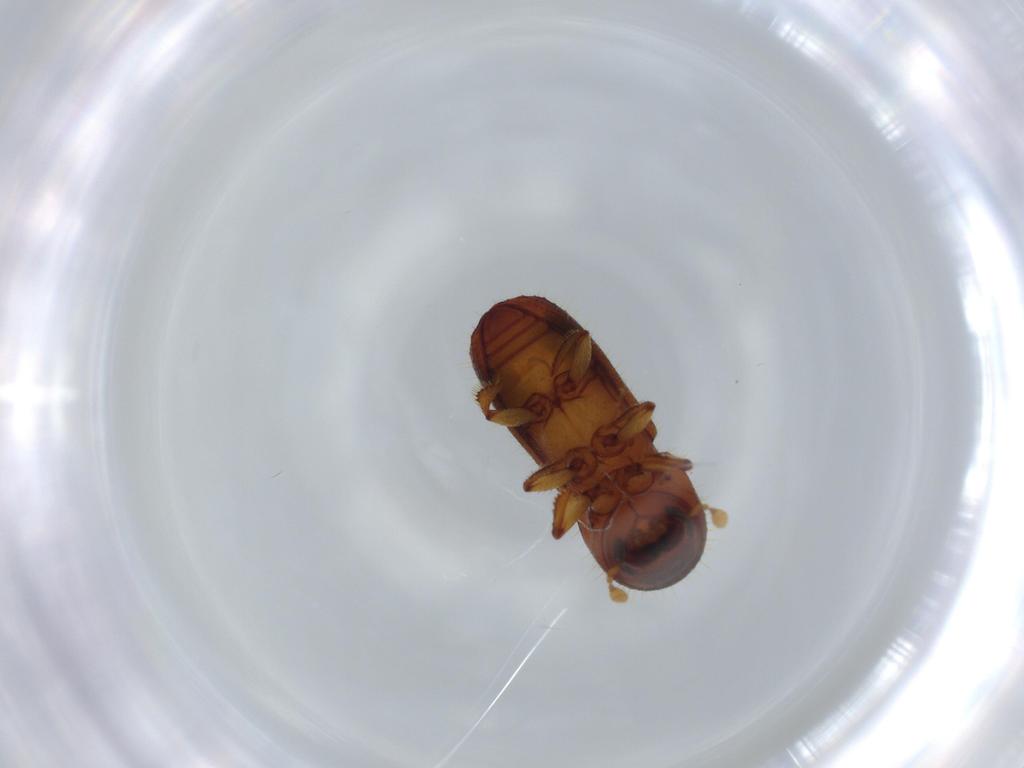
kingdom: Animalia
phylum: Arthropoda
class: Insecta
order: Coleoptera
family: Curculionidae
